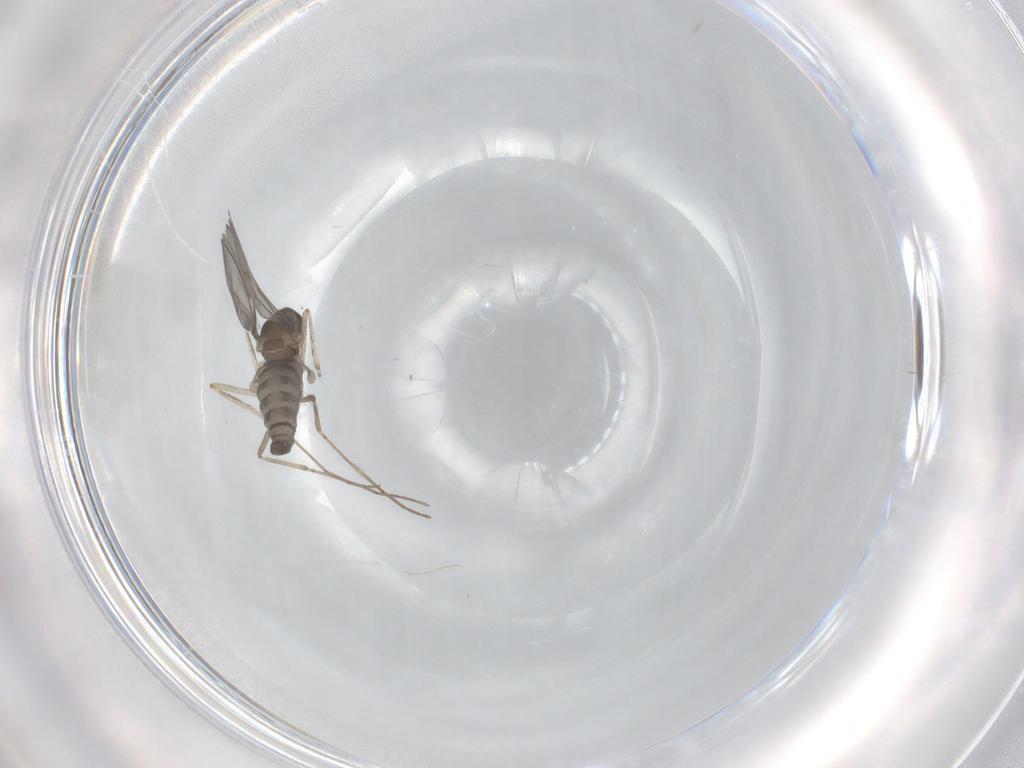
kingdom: Animalia
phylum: Arthropoda
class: Insecta
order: Diptera
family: Cecidomyiidae
